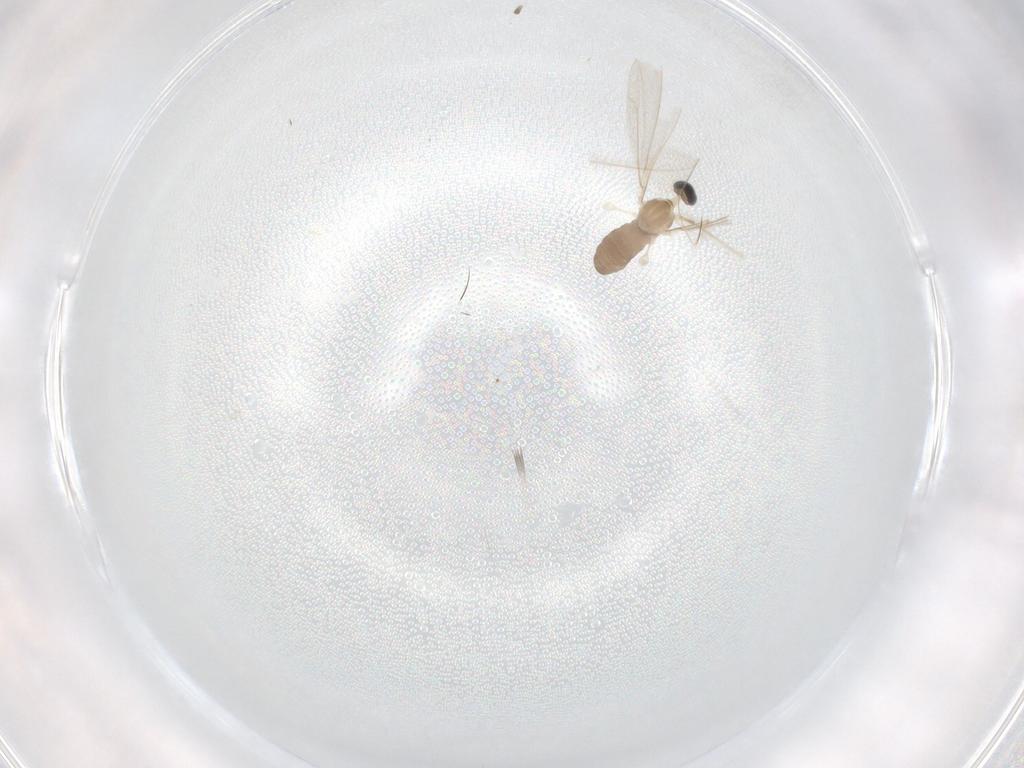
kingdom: Animalia
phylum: Arthropoda
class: Insecta
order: Diptera
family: Cecidomyiidae
